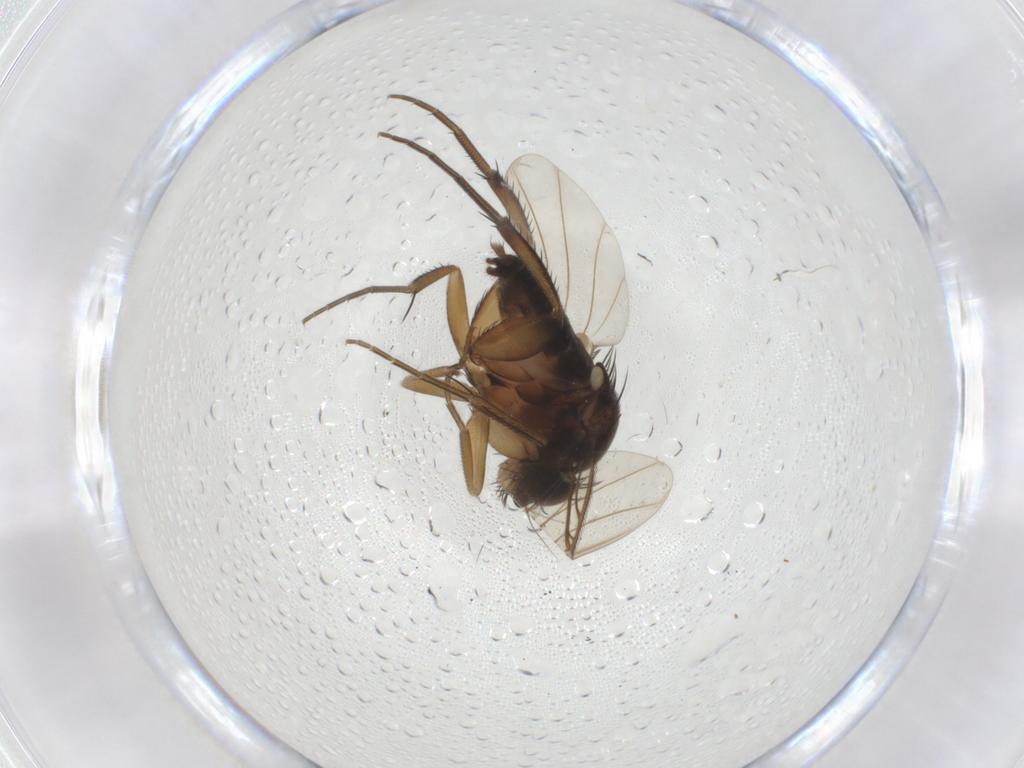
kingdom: Animalia
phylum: Arthropoda
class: Insecta
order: Diptera
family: Phoridae
